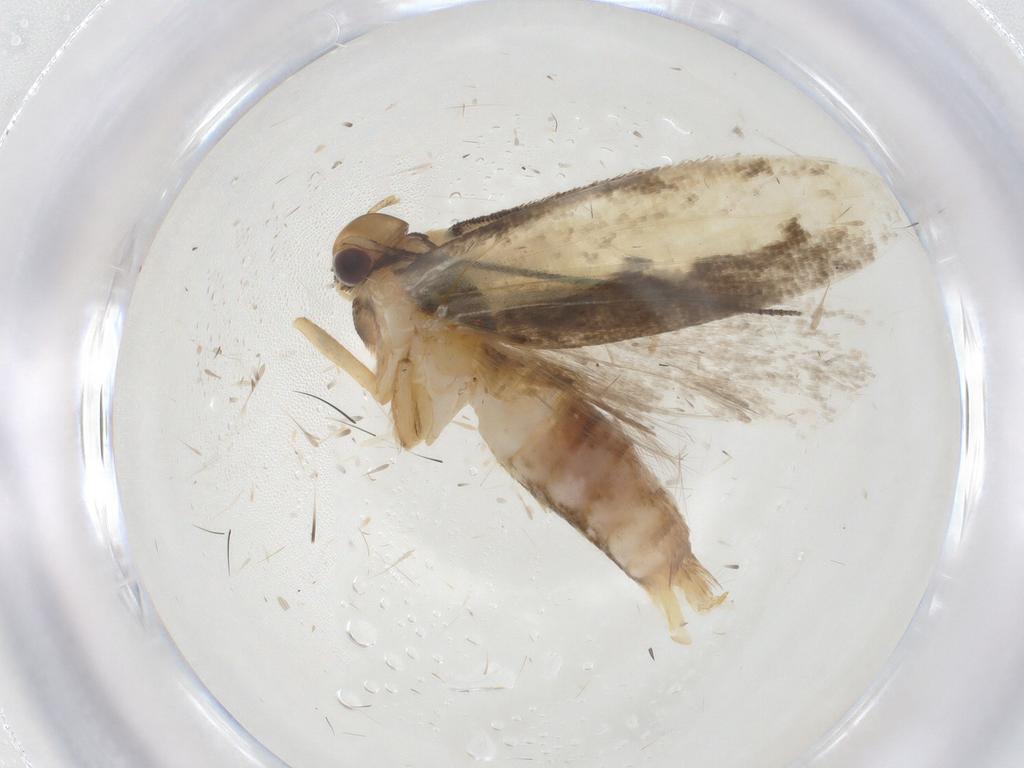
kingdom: Animalia
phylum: Arthropoda
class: Insecta
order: Lepidoptera
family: Gelechiidae
